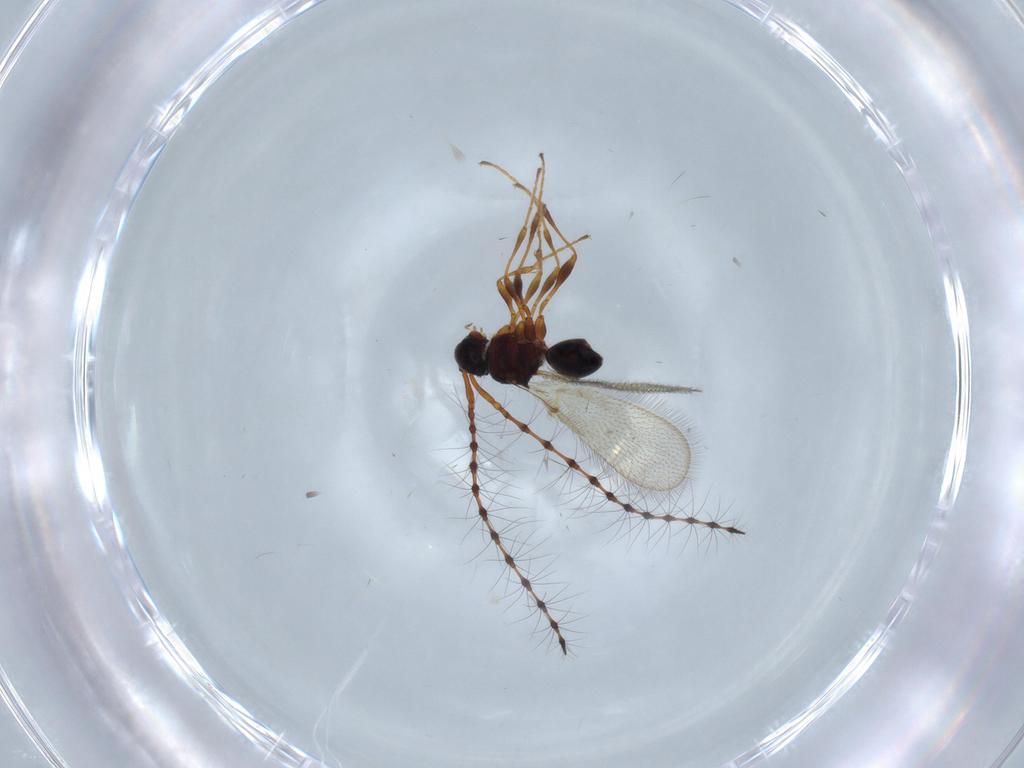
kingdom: Animalia
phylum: Arthropoda
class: Insecta
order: Hymenoptera
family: Diapriidae
